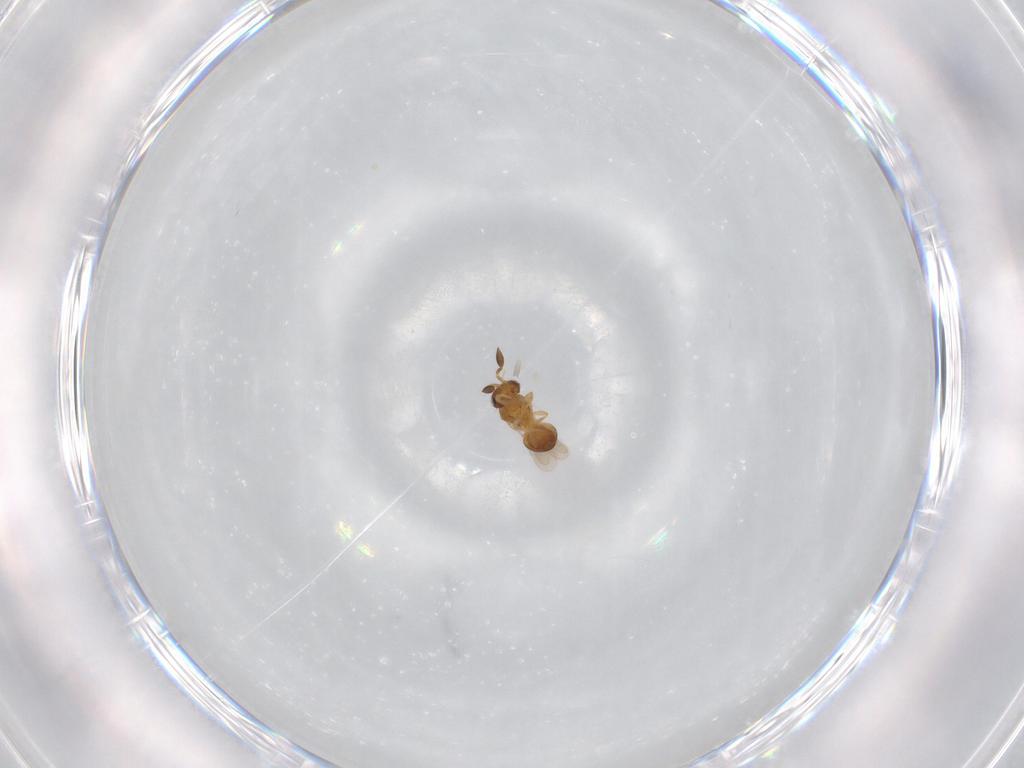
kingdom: Animalia
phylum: Arthropoda
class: Insecta
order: Hymenoptera
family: Scelionidae
